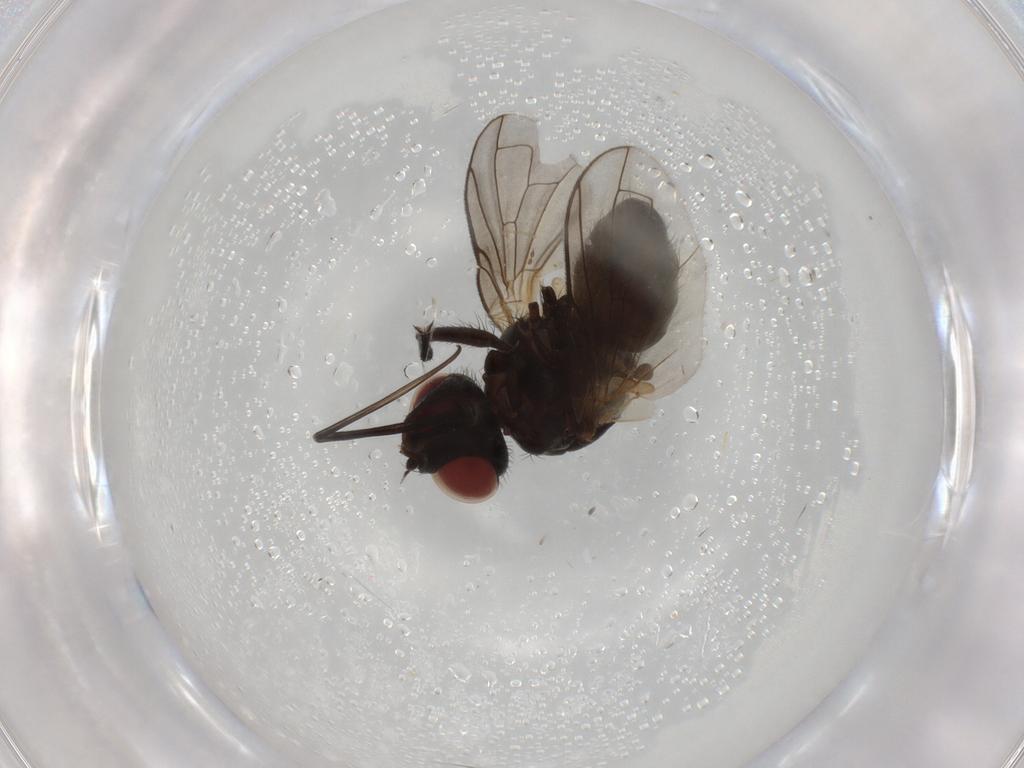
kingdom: Animalia
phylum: Arthropoda
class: Insecta
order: Diptera
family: Tachinidae
